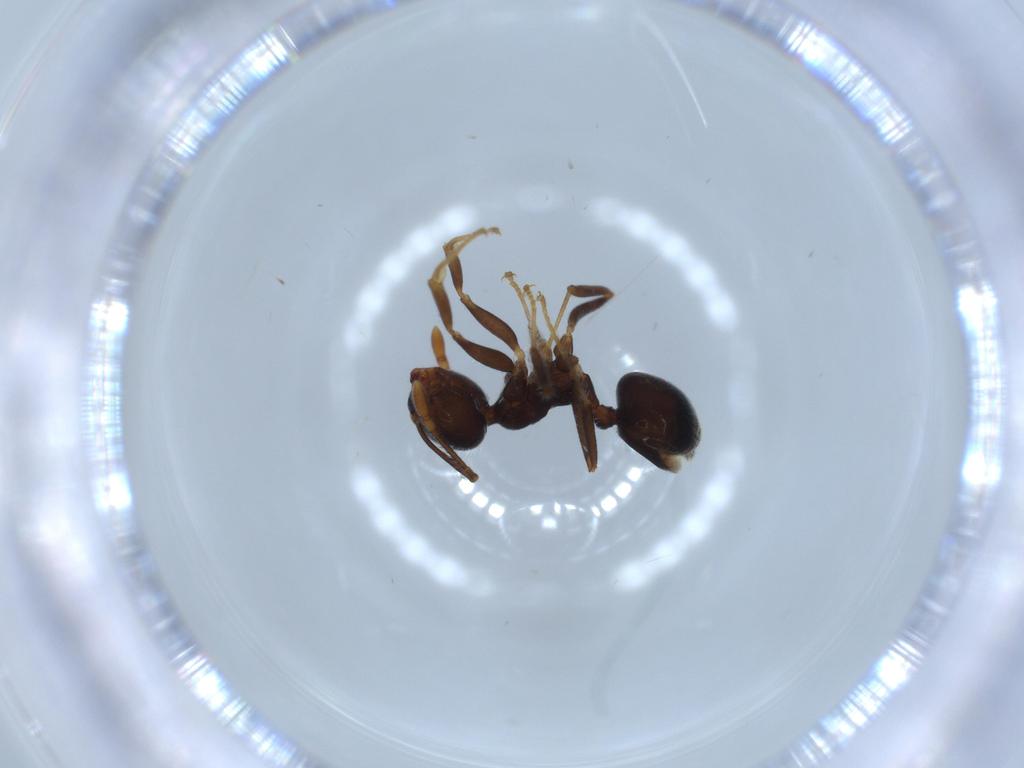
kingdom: Animalia
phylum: Arthropoda
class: Insecta
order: Hymenoptera
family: Formicidae
